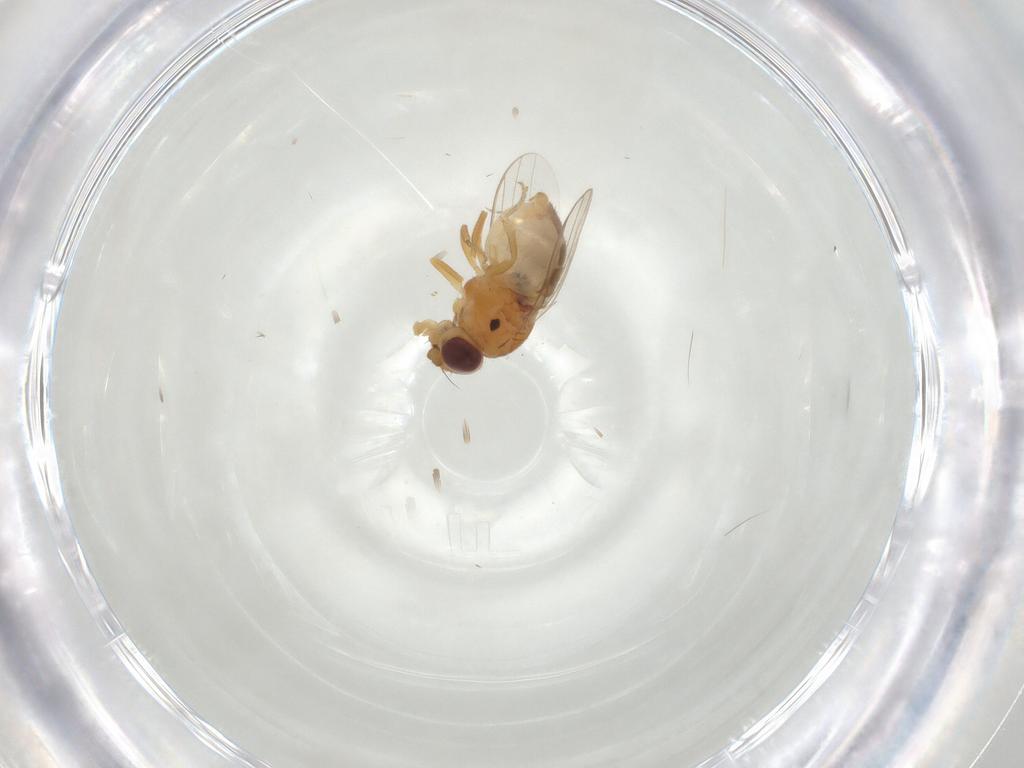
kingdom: Animalia
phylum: Arthropoda
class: Insecta
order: Diptera
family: Chloropidae
